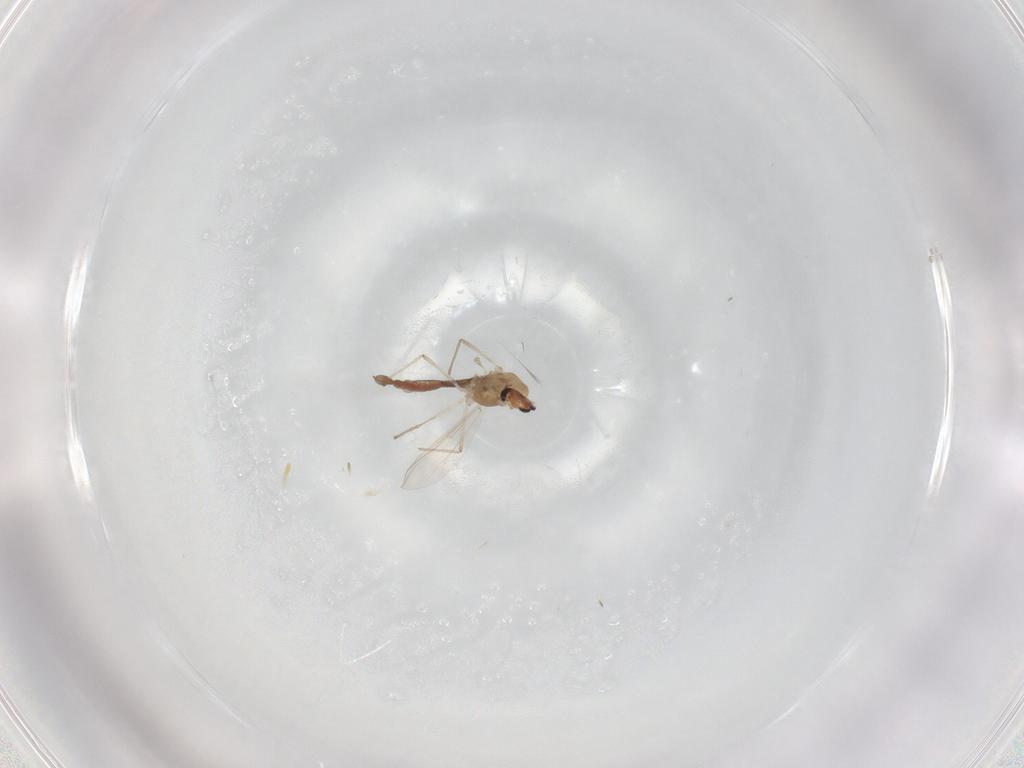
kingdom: Animalia
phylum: Arthropoda
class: Insecta
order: Diptera
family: Chironomidae
